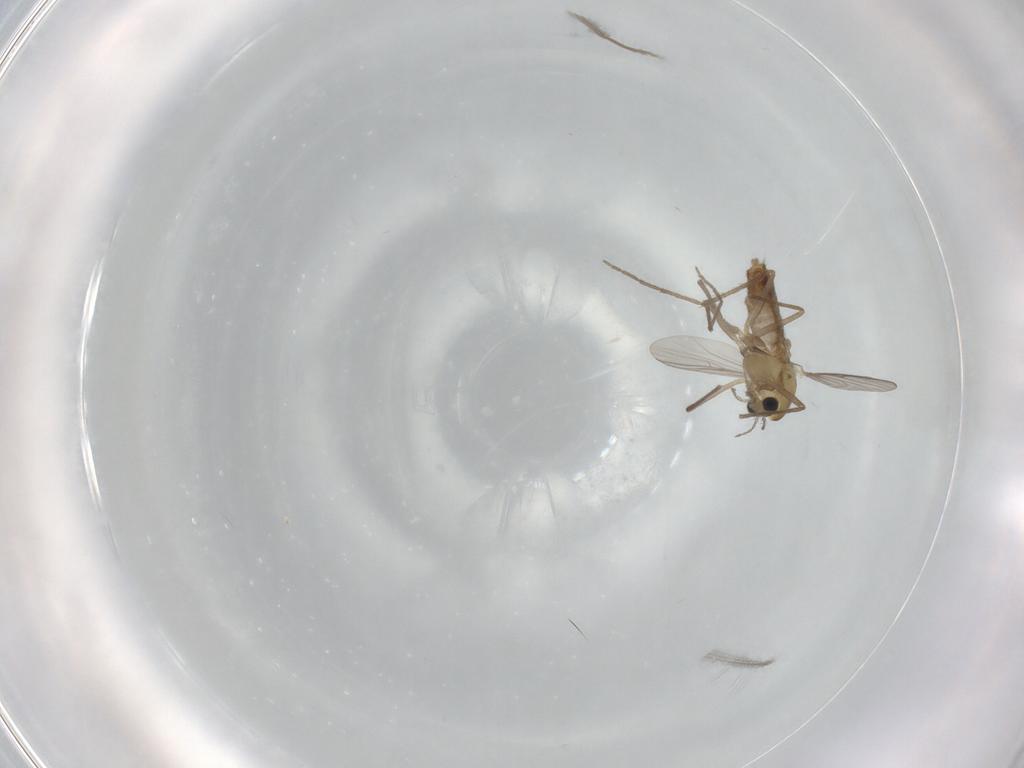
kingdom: Animalia
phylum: Arthropoda
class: Insecta
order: Diptera
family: Chironomidae
